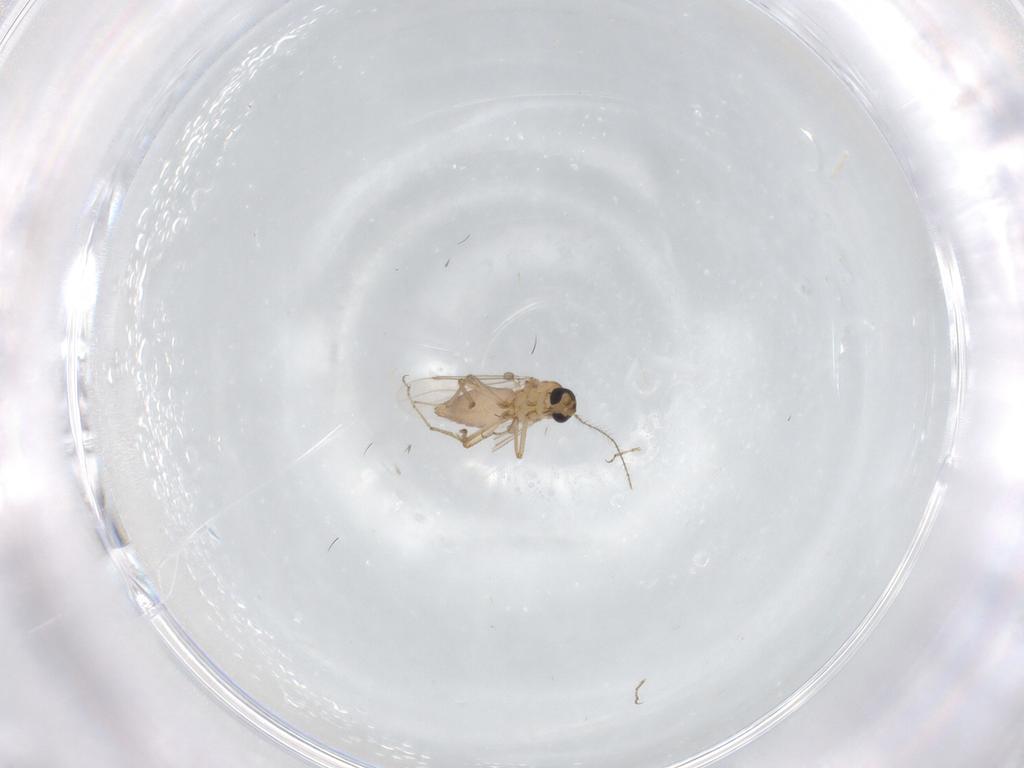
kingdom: Animalia
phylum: Arthropoda
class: Insecta
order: Diptera
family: Ceratopogonidae
